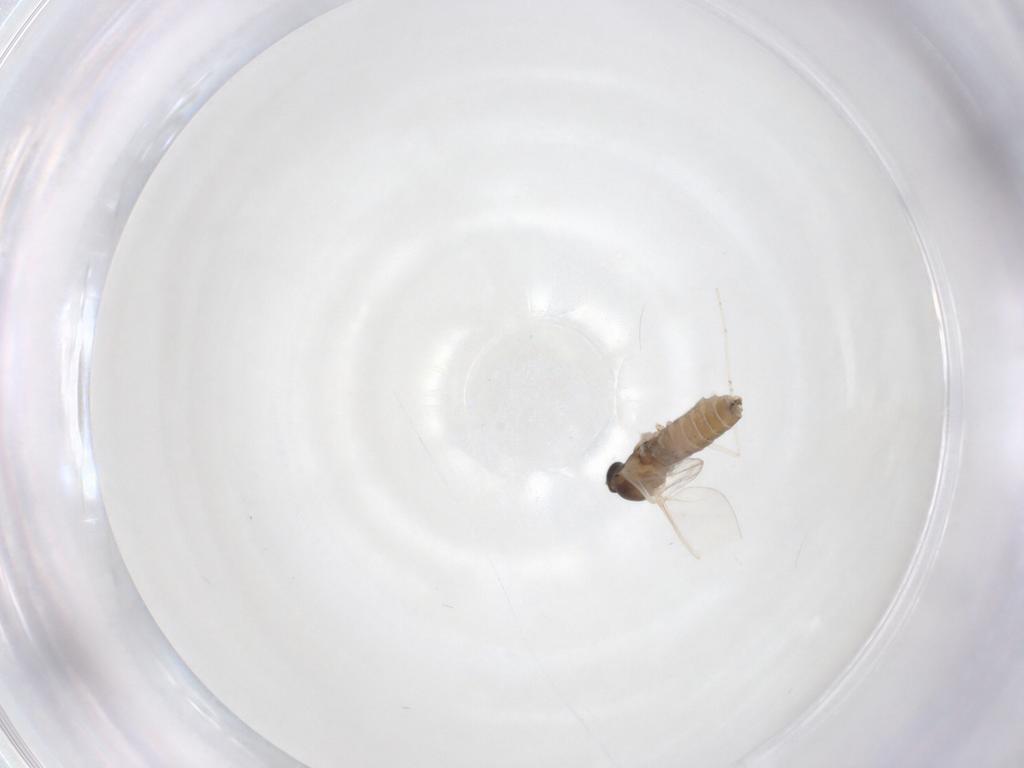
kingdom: Animalia
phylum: Arthropoda
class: Insecta
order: Diptera
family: Cecidomyiidae
